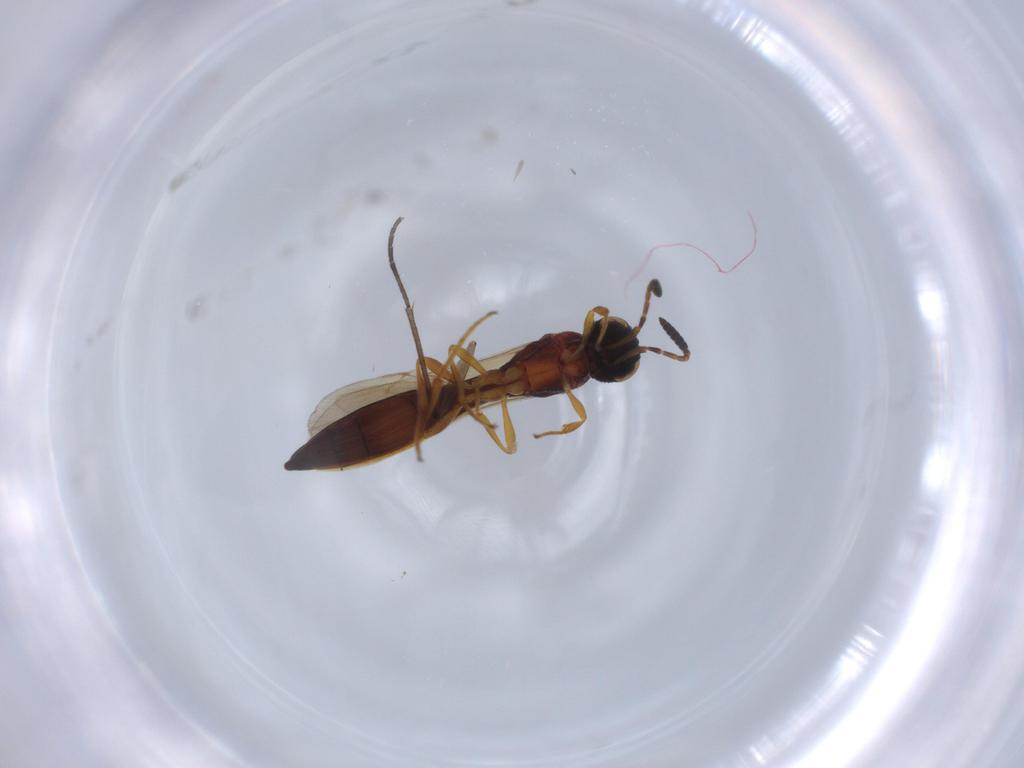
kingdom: Animalia
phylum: Arthropoda
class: Insecta
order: Hymenoptera
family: Scelionidae
